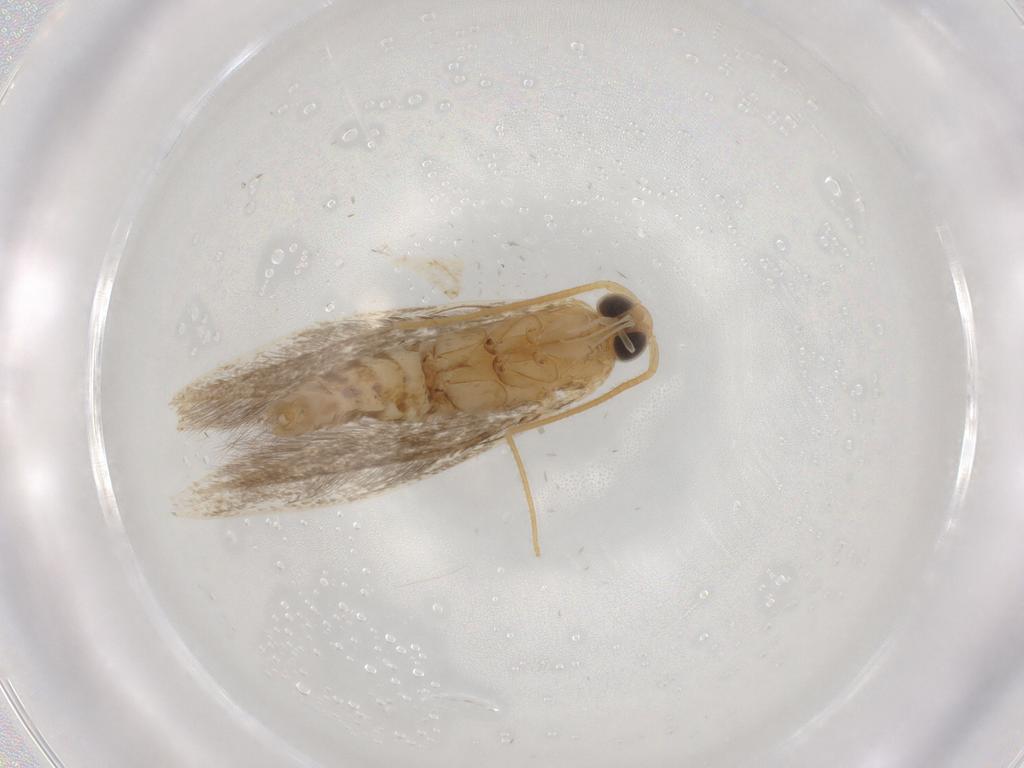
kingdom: Animalia
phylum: Arthropoda
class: Insecta
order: Lepidoptera
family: Coleophoridae
